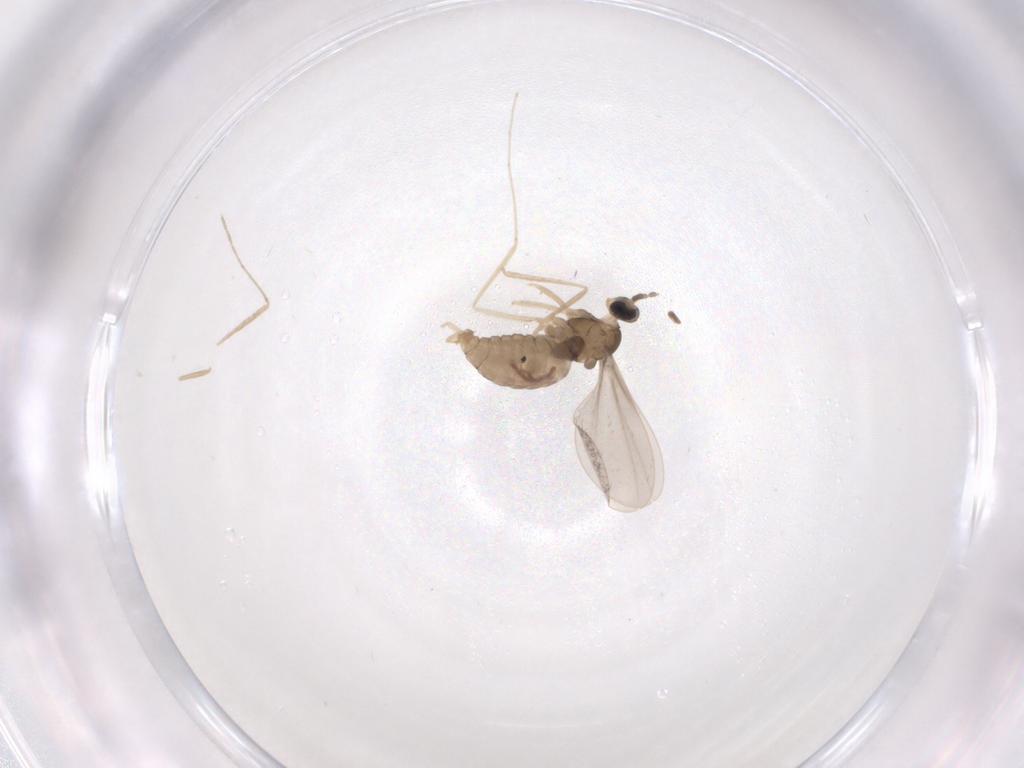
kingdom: Animalia
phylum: Arthropoda
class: Insecta
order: Diptera
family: Cecidomyiidae
